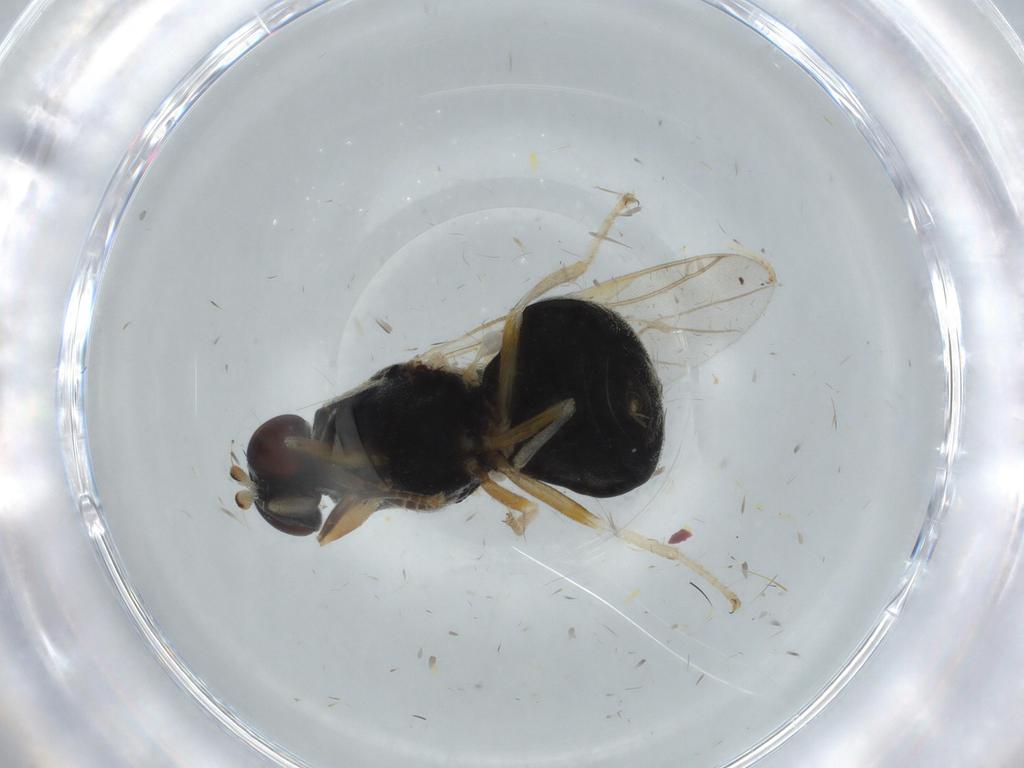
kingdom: Animalia
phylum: Arthropoda
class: Insecta
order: Diptera
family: Stratiomyidae
